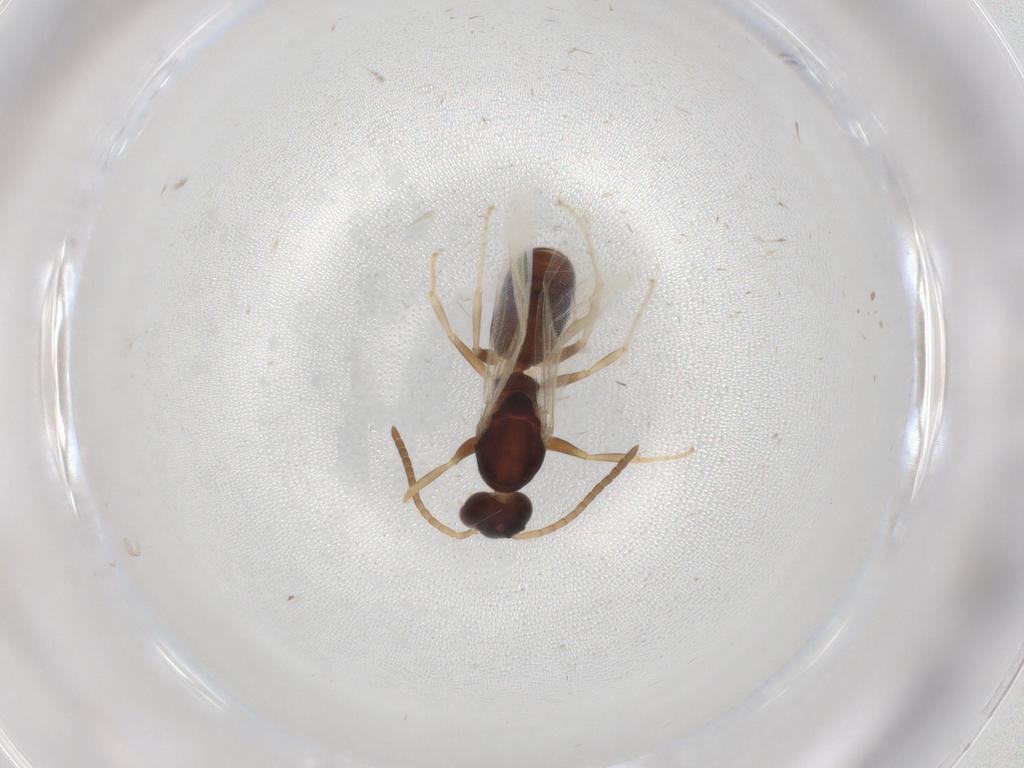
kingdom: Animalia
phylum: Arthropoda
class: Insecta
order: Hymenoptera
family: Formicidae
